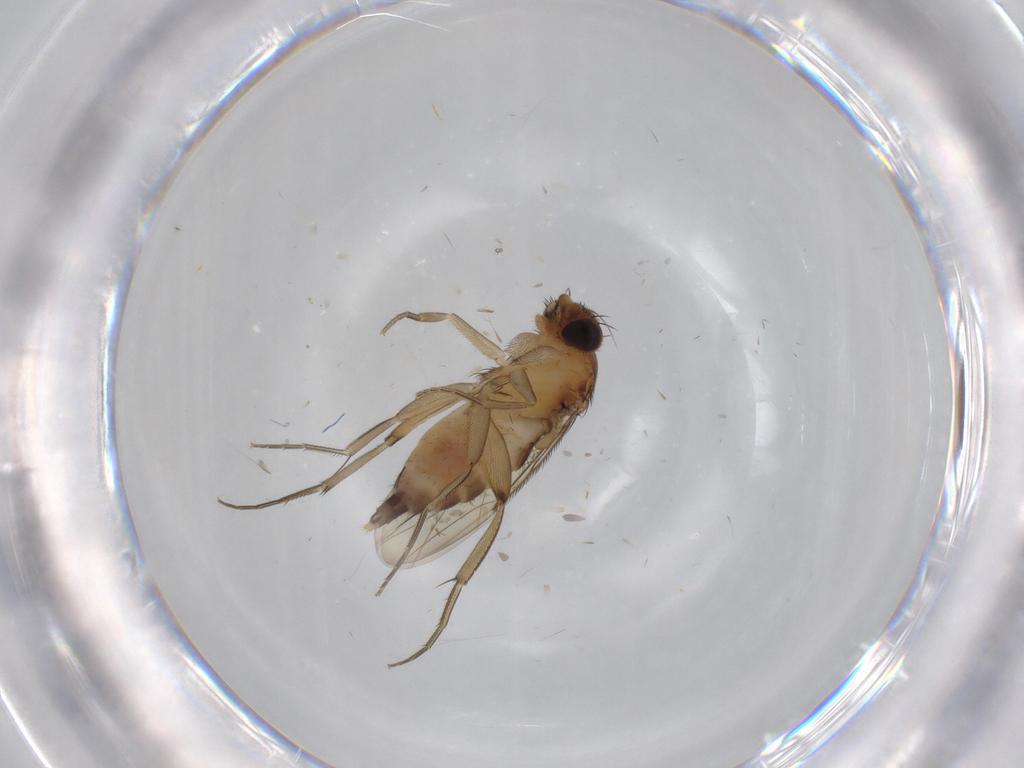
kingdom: Animalia
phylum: Arthropoda
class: Insecta
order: Diptera
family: Phoridae
